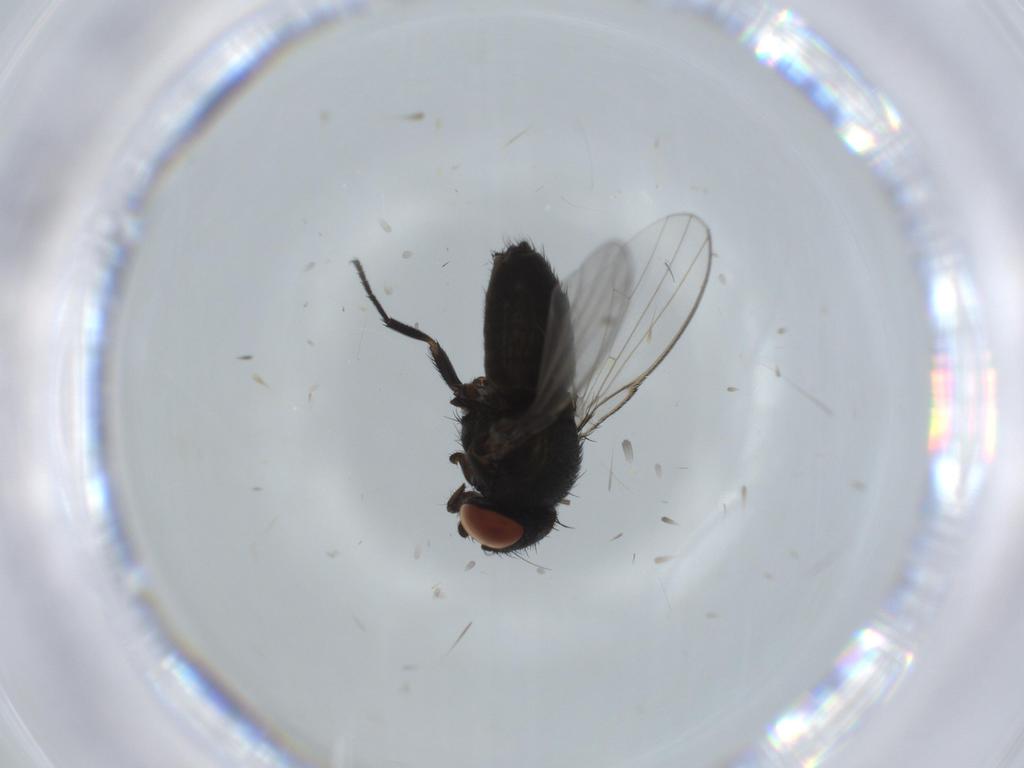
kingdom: Animalia
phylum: Arthropoda
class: Insecta
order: Diptera
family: Milichiidae
